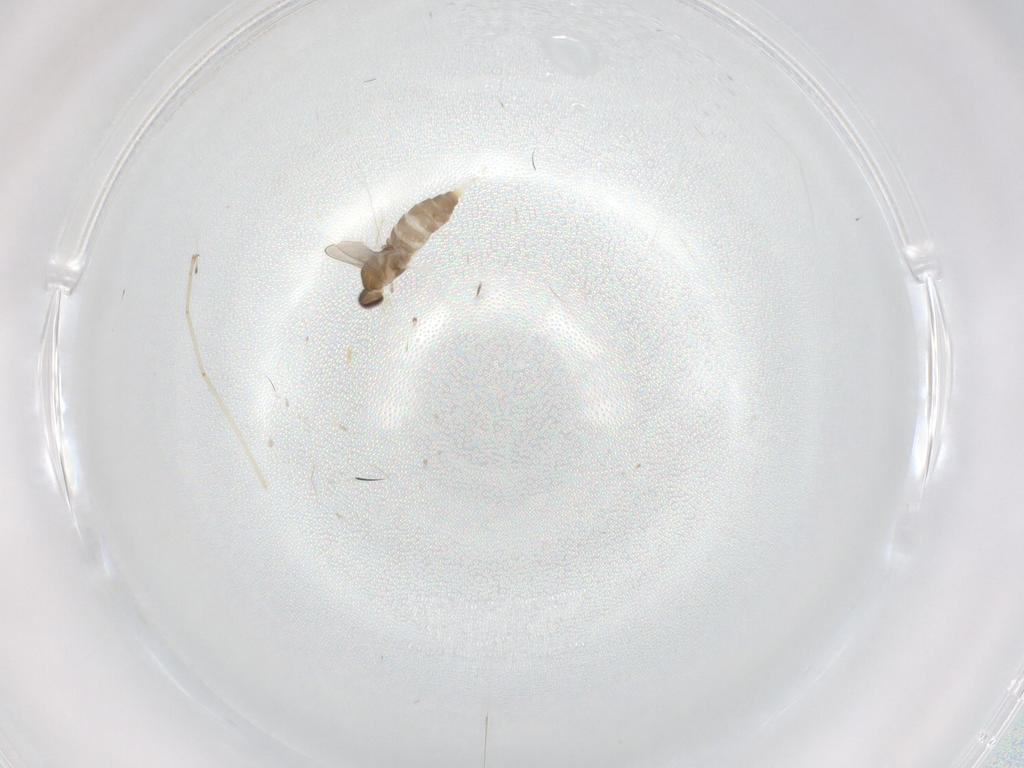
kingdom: Animalia
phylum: Arthropoda
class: Insecta
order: Diptera
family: Cecidomyiidae
